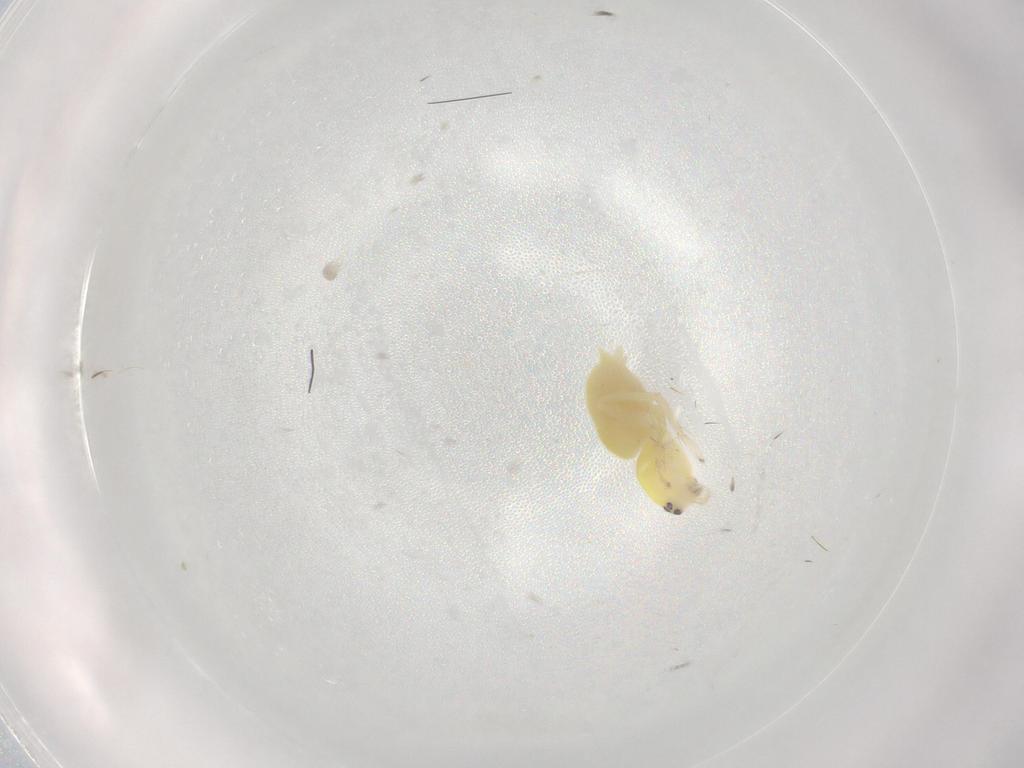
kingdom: Animalia
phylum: Arthropoda
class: Arachnida
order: Araneae
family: Anyphaenidae
